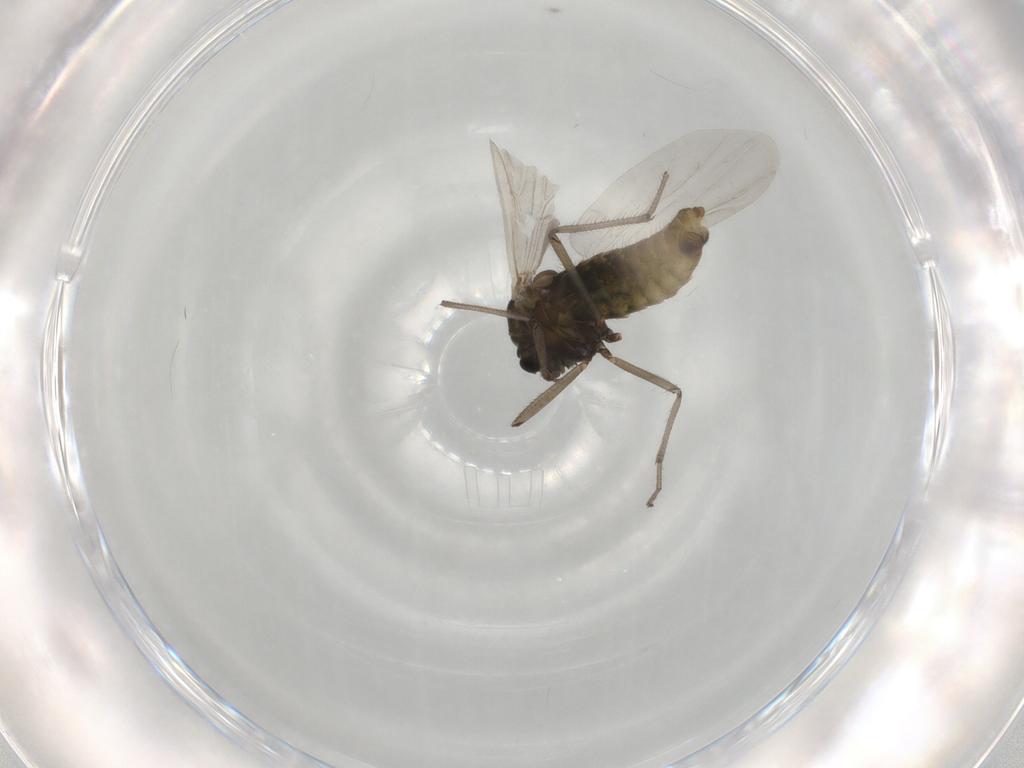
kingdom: Animalia
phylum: Arthropoda
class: Insecta
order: Diptera
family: Chironomidae
